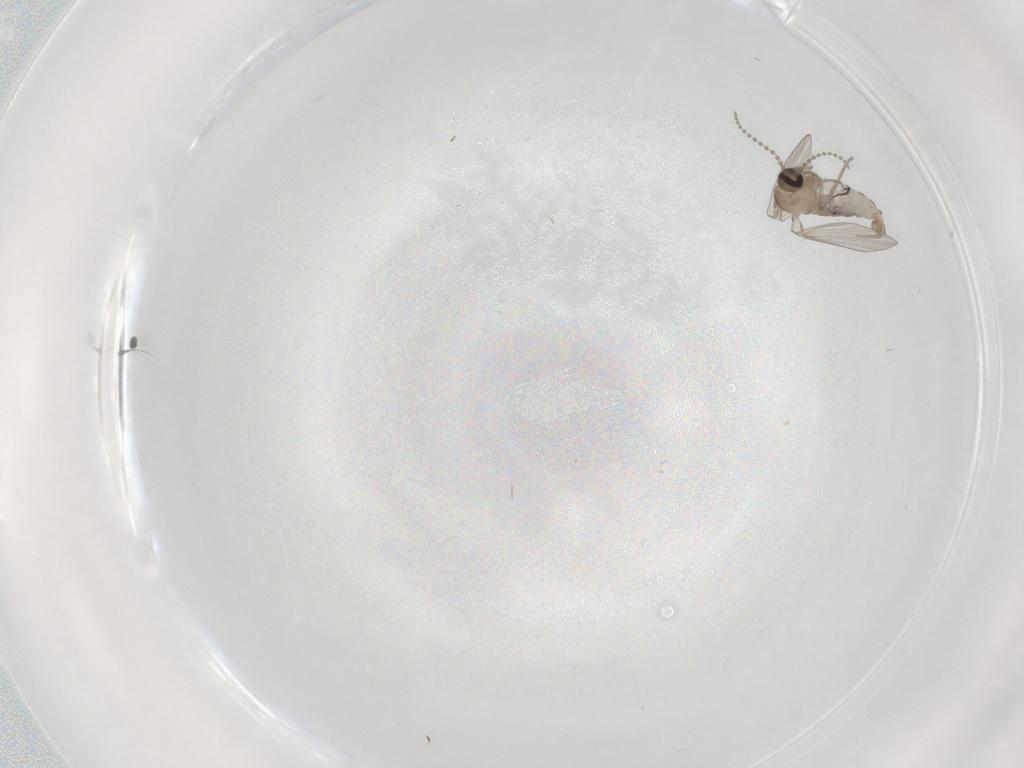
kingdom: Animalia
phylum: Arthropoda
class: Insecta
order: Diptera
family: Psychodidae
